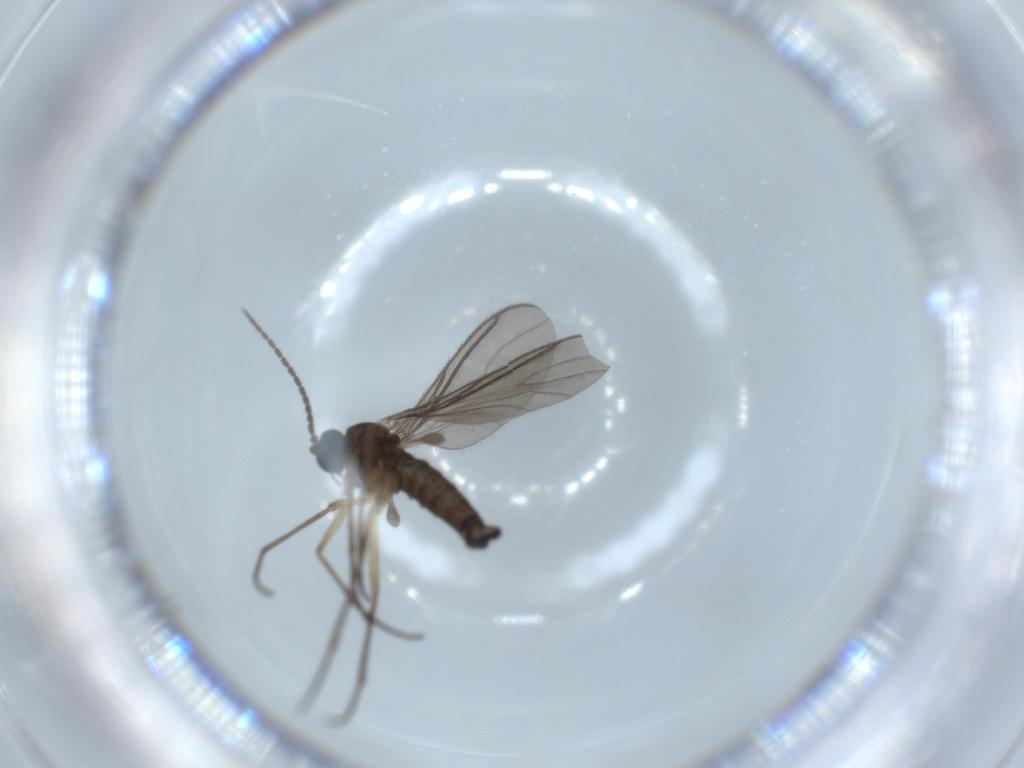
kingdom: Animalia
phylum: Arthropoda
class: Insecta
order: Diptera
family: Sciaridae
